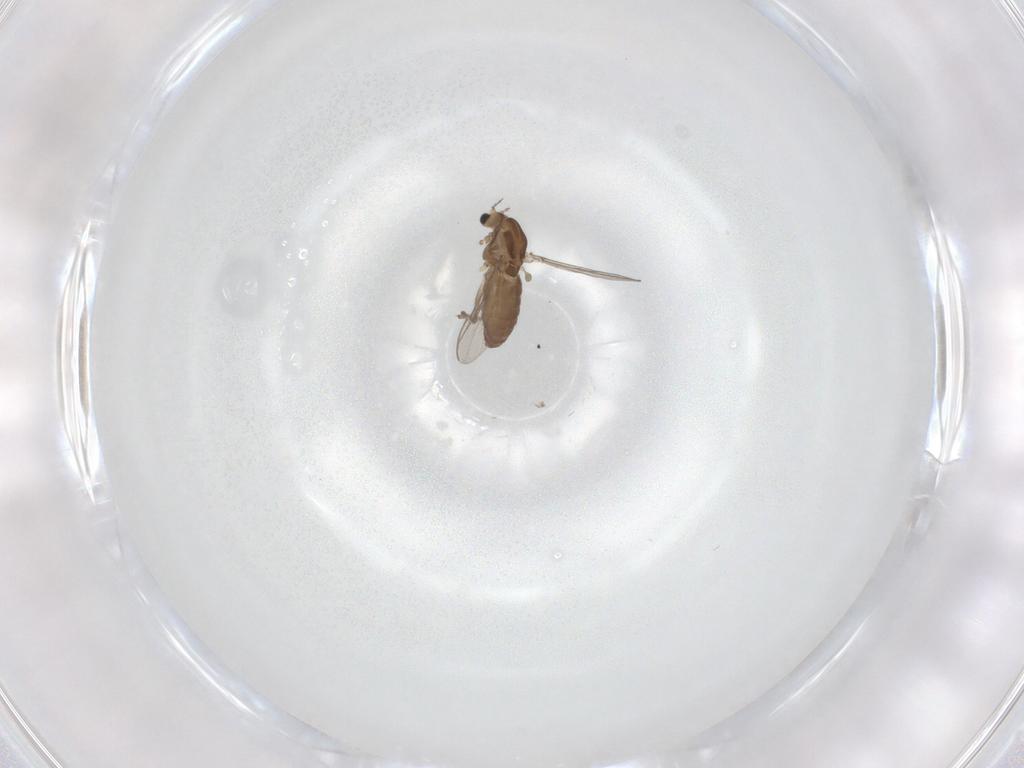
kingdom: Animalia
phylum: Arthropoda
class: Insecta
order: Diptera
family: Chironomidae
